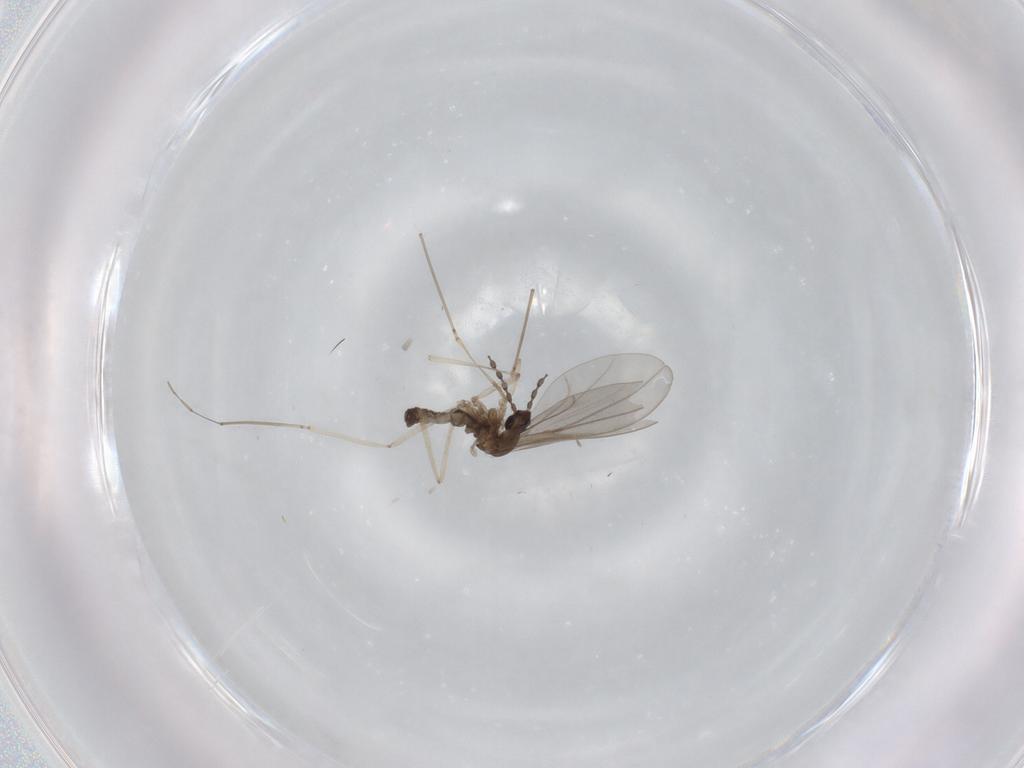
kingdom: Animalia
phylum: Arthropoda
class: Insecta
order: Diptera
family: Cecidomyiidae
